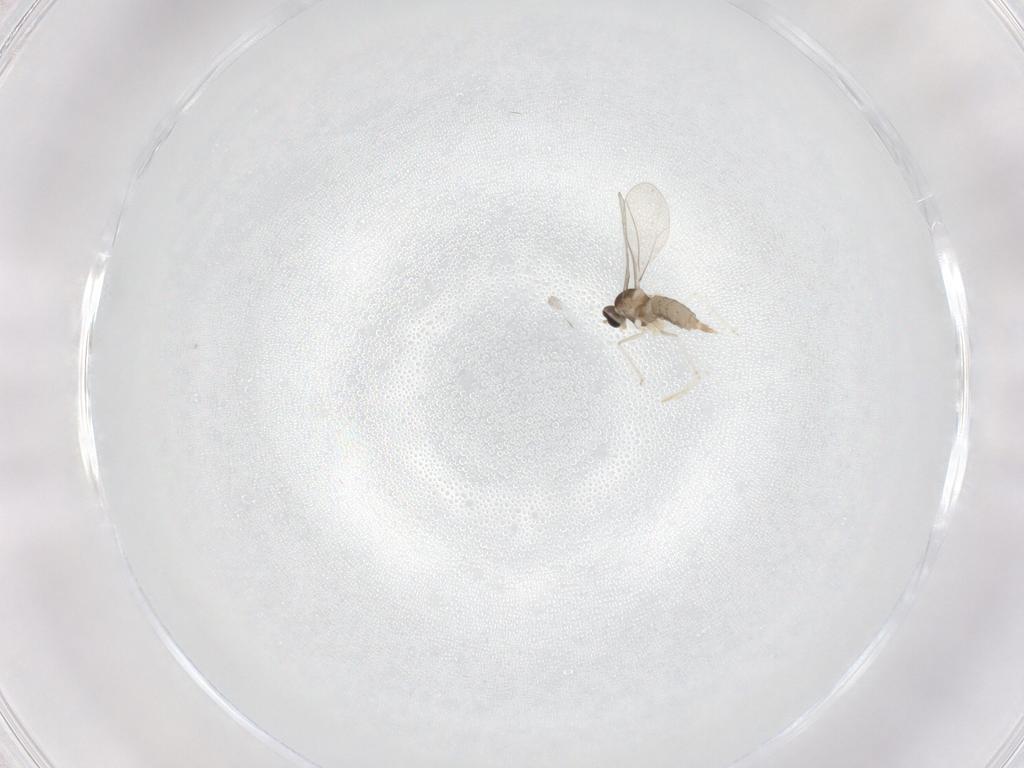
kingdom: Animalia
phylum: Arthropoda
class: Insecta
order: Diptera
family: Cecidomyiidae
